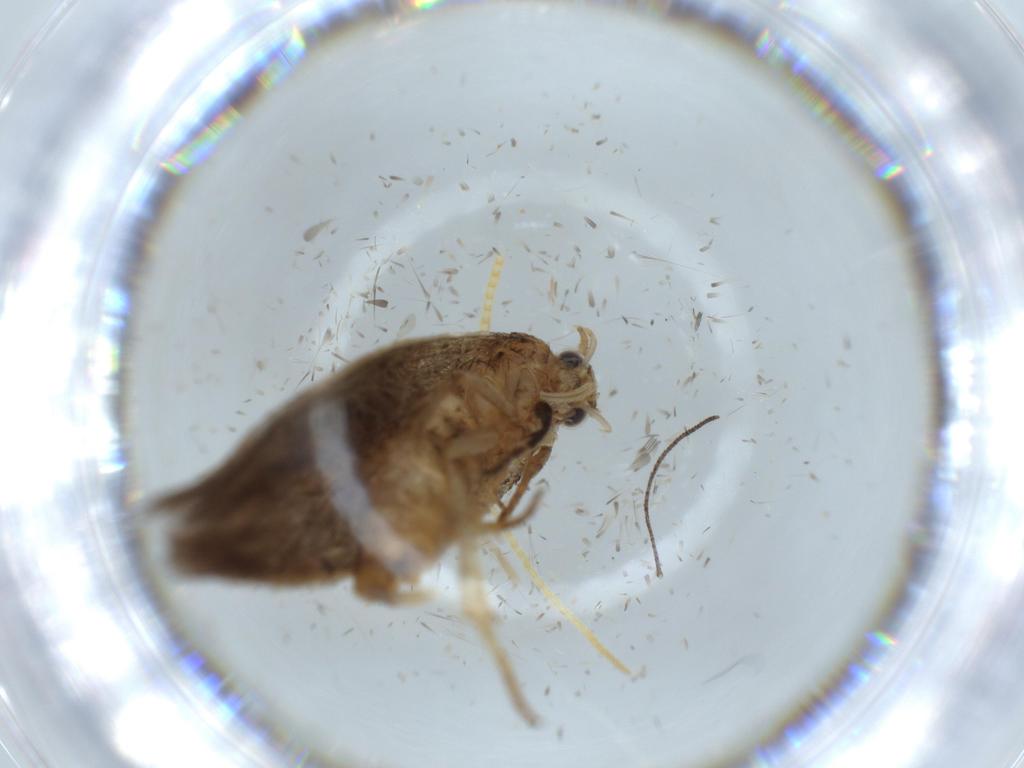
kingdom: Animalia
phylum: Arthropoda
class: Insecta
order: Lepidoptera
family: Oecophoridae
